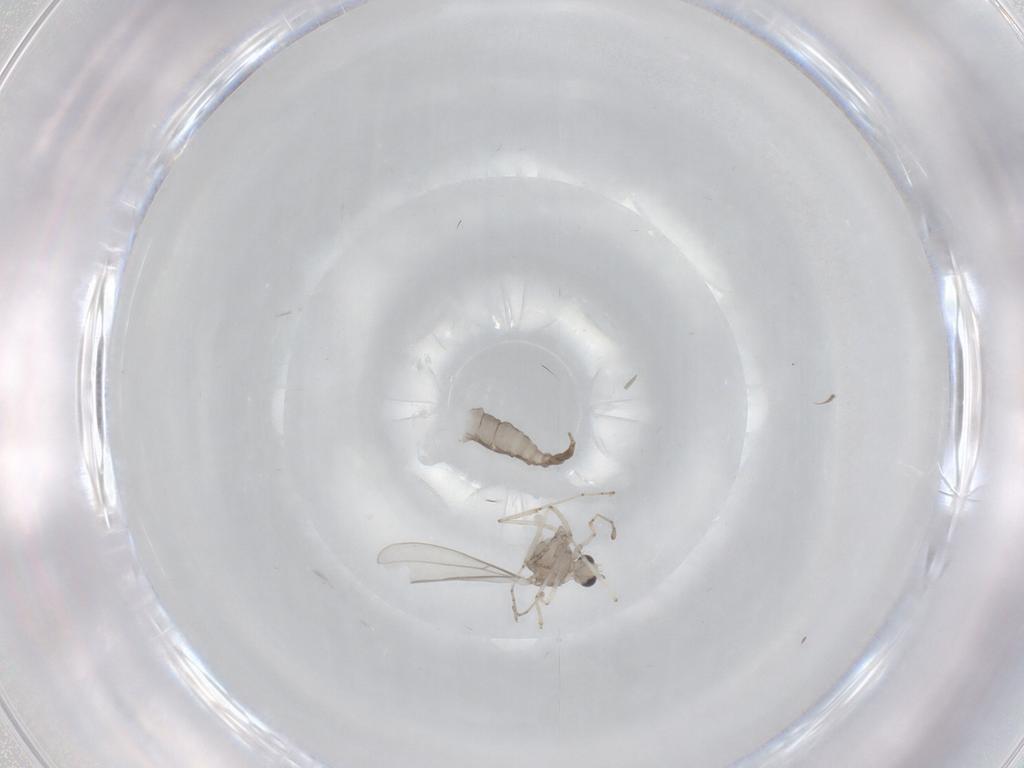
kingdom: Animalia
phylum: Arthropoda
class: Insecta
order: Diptera
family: Cecidomyiidae
